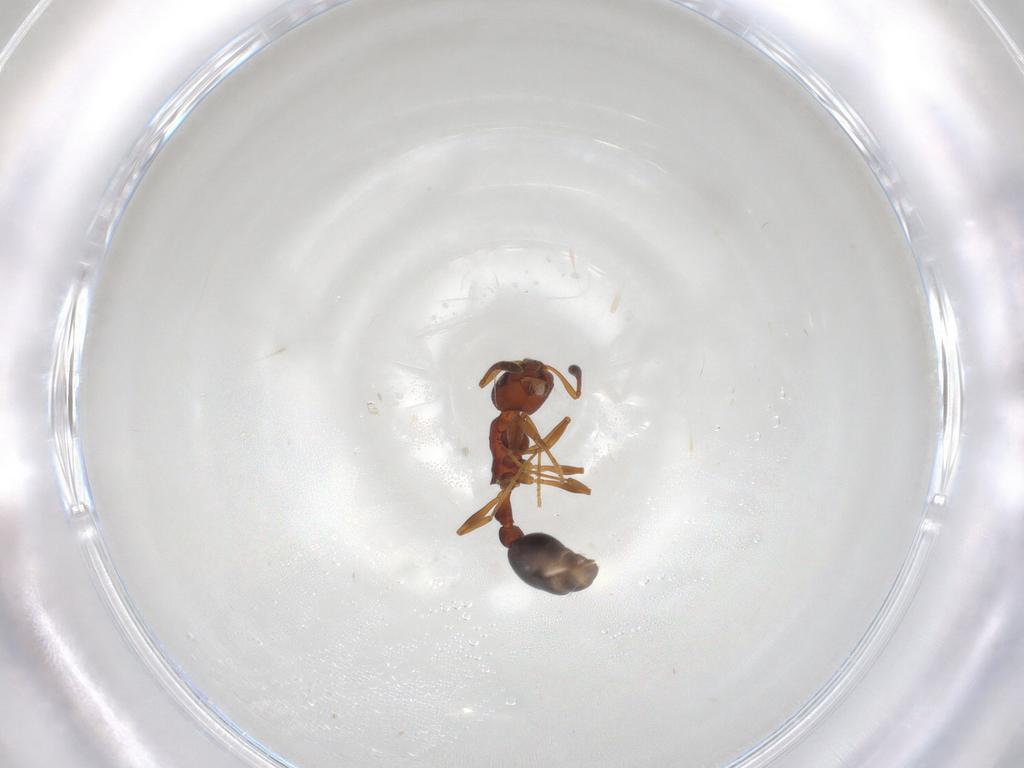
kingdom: Animalia
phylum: Arthropoda
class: Insecta
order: Hymenoptera
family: Formicidae
